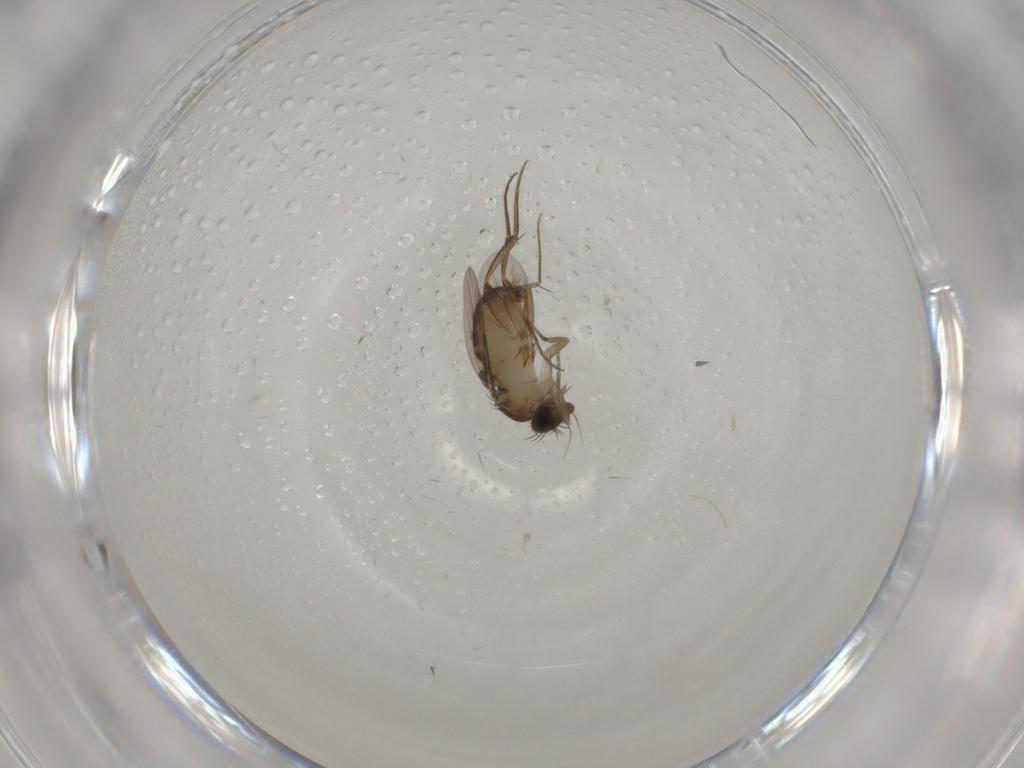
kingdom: Animalia
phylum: Arthropoda
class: Insecta
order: Diptera
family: Phoridae
